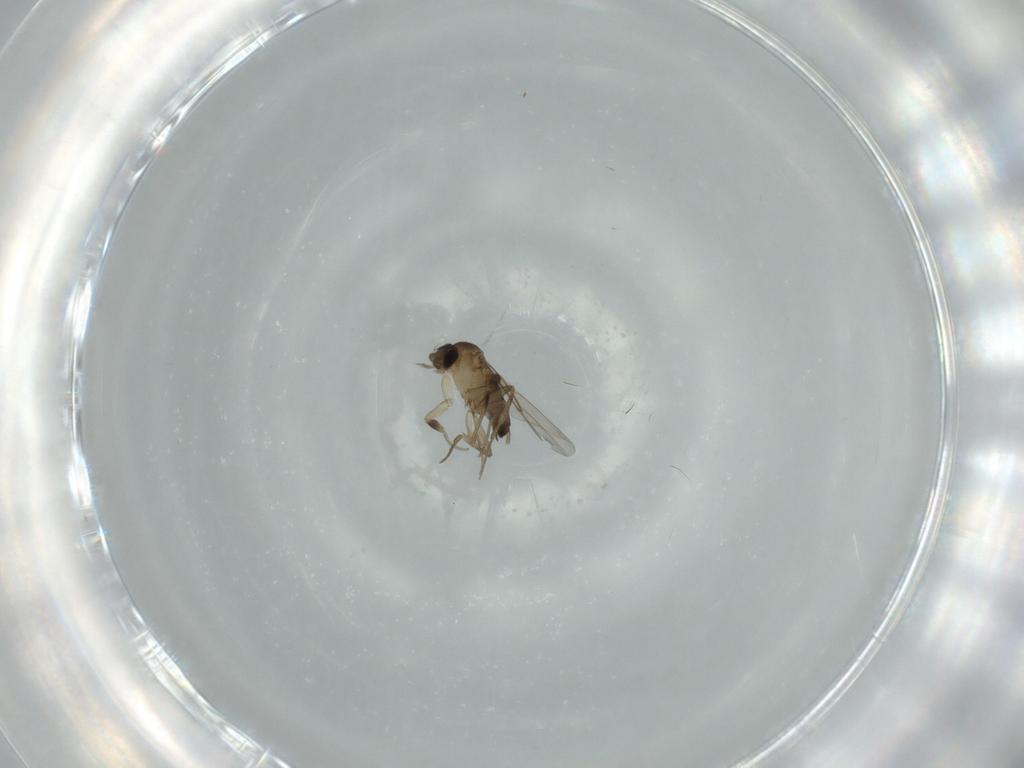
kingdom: Animalia
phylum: Arthropoda
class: Insecta
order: Diptera
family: Phoridae
